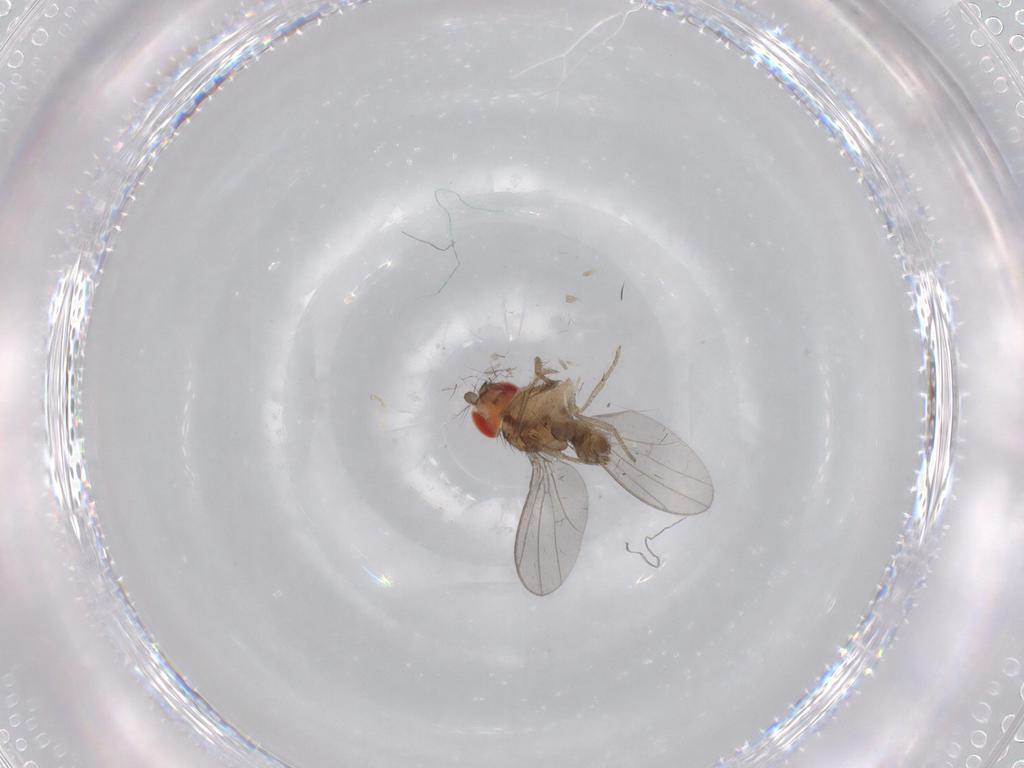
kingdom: Animalia
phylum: Arthropoda
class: Insecta
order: Diptera
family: Drosophilidae
